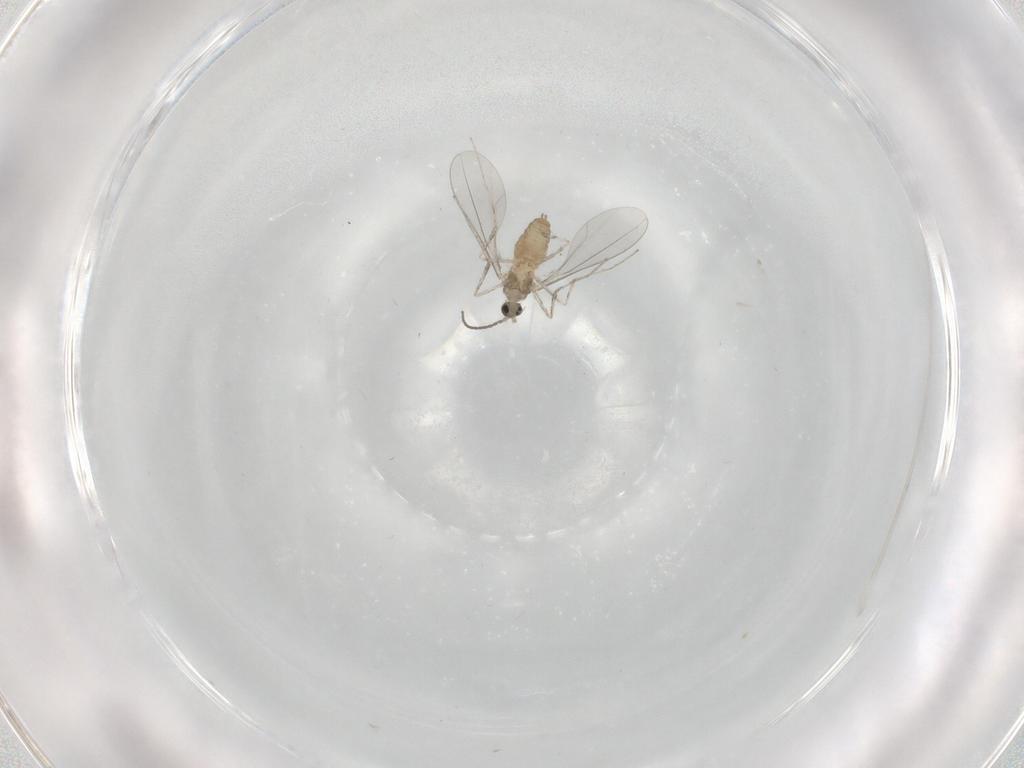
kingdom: Animalia
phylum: Arthropoda
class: Insecta
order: Diptera
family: Cecidomyiidae
